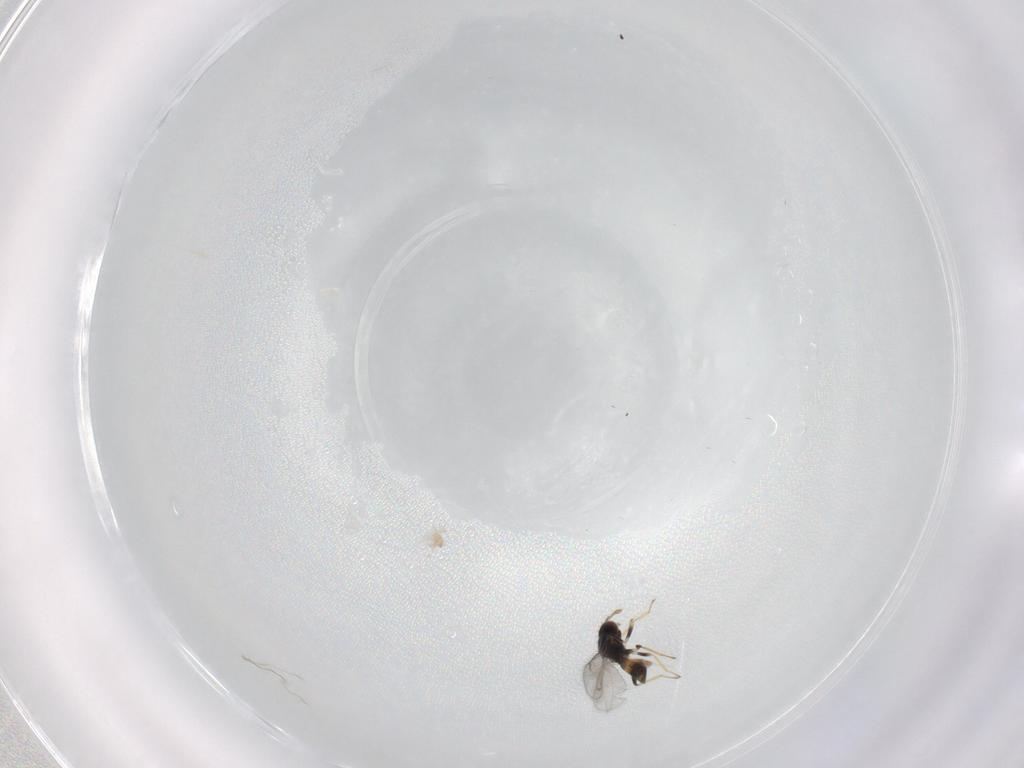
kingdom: Animalia
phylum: Arthropoda
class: Insecta
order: Hymenoptera
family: Eulophidae
